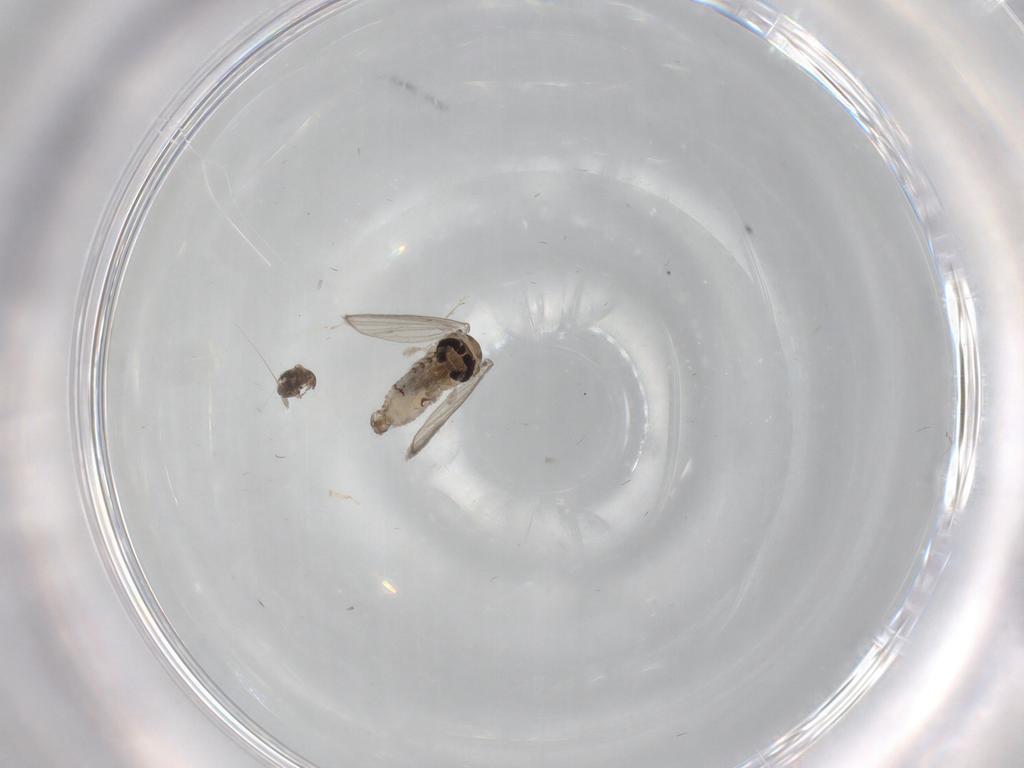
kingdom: Animalia
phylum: Arthropoda
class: Insecta
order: Diptera
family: Psychodidae
